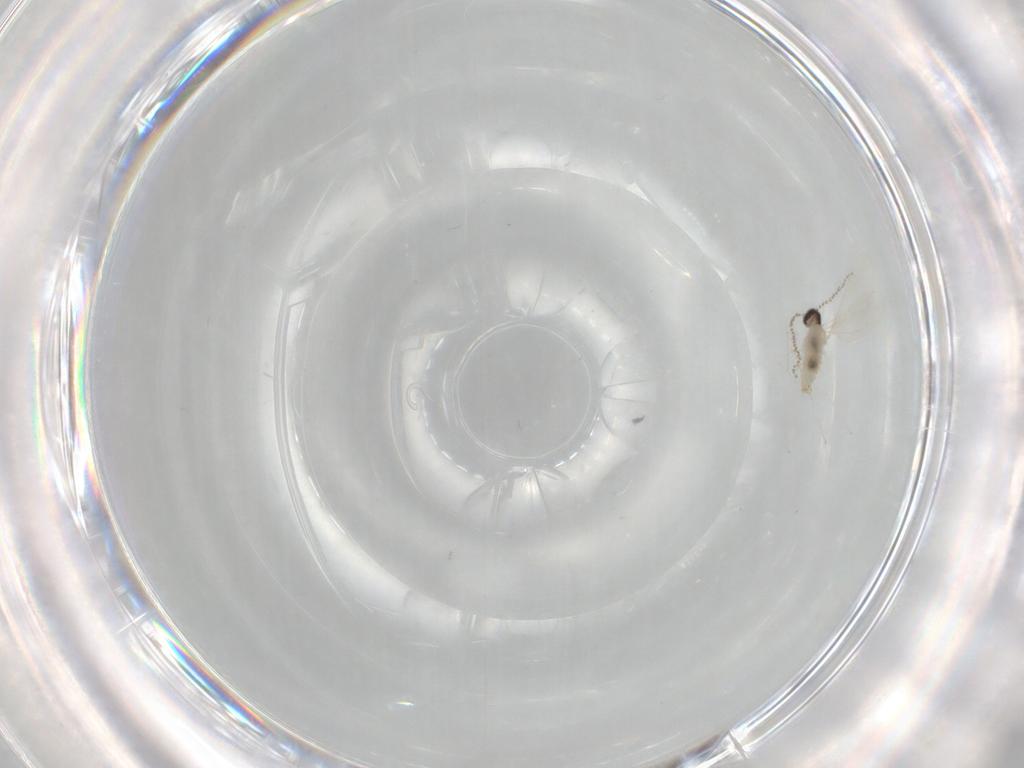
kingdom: Animalia
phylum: Arthropoda
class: Insecta
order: Diptera
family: Cecidomyiidae
